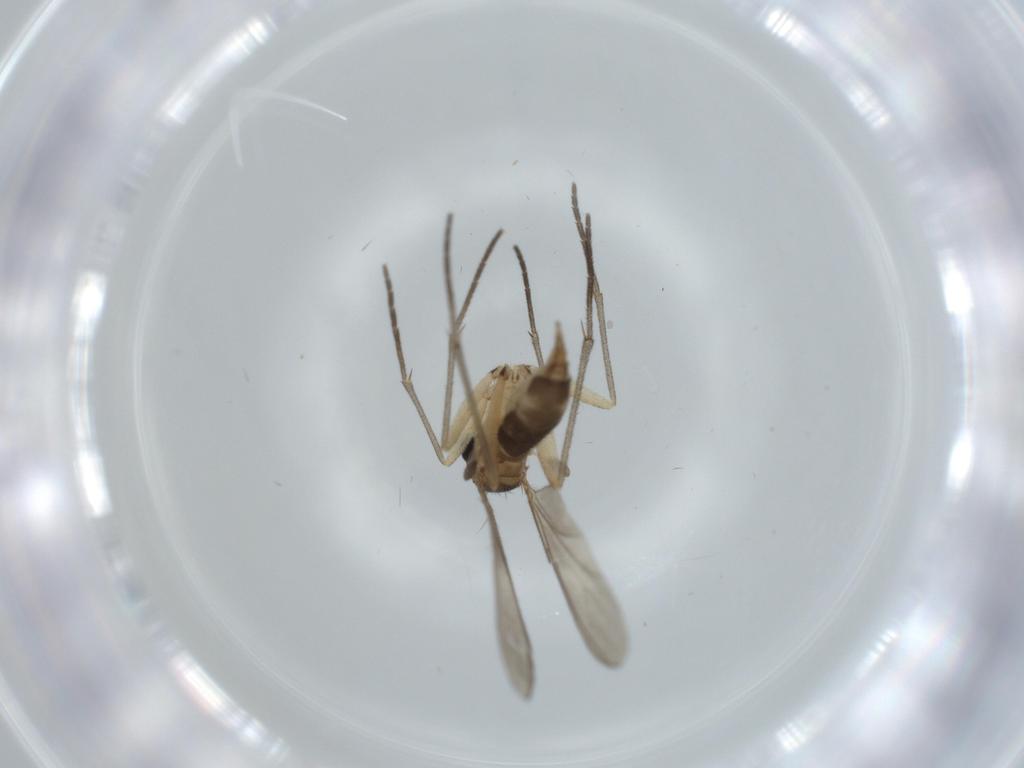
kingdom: Animalia
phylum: Arthropoda
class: Insecta
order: Diptera
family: Sciaridae
